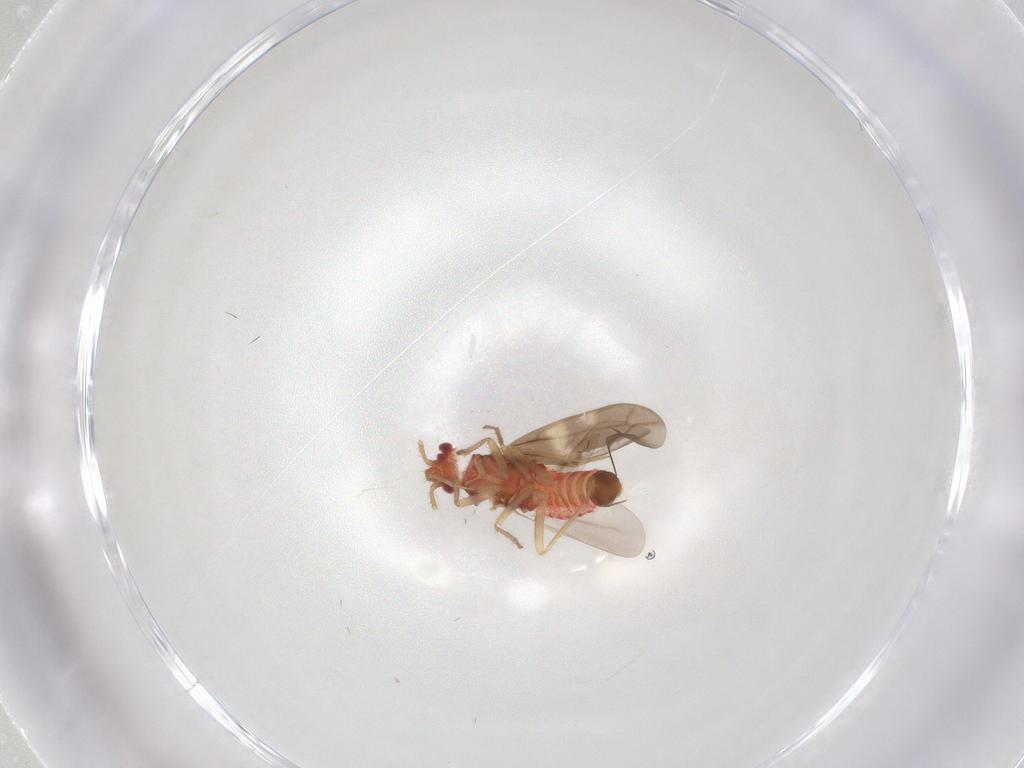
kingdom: Animalia
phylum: Arthropoda
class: Insecta
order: Hemiptera
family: Ceratocombidae
